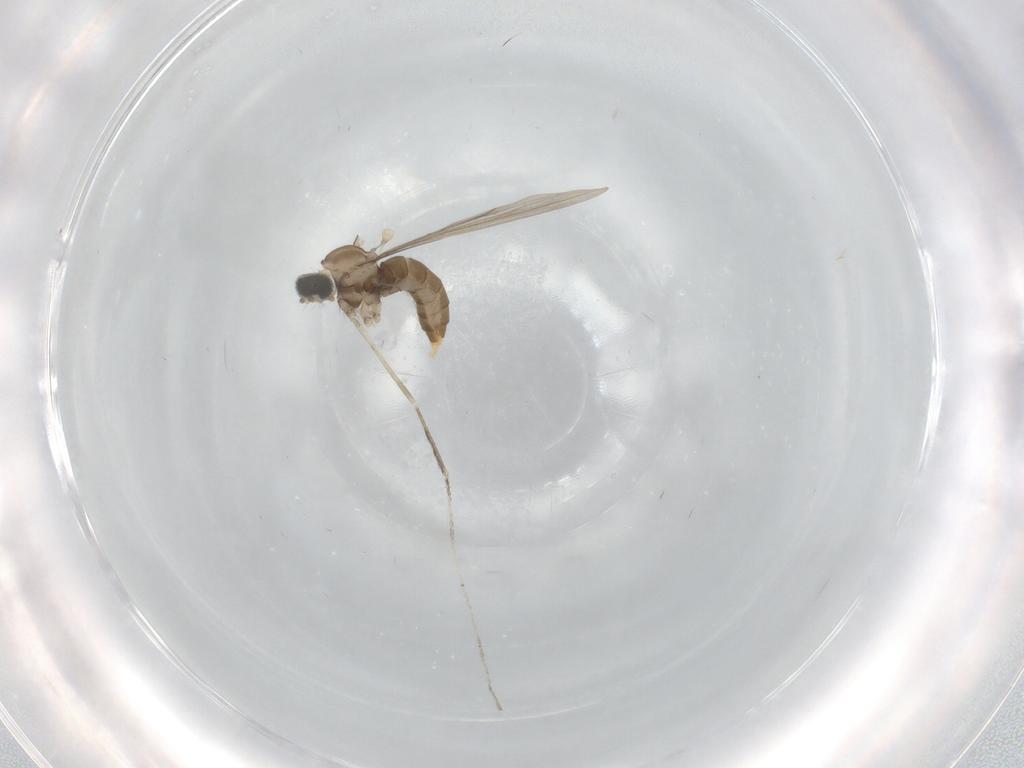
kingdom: Animalia
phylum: Arthropoda
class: Insecta
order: Diptera
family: Cecidomyiidae
